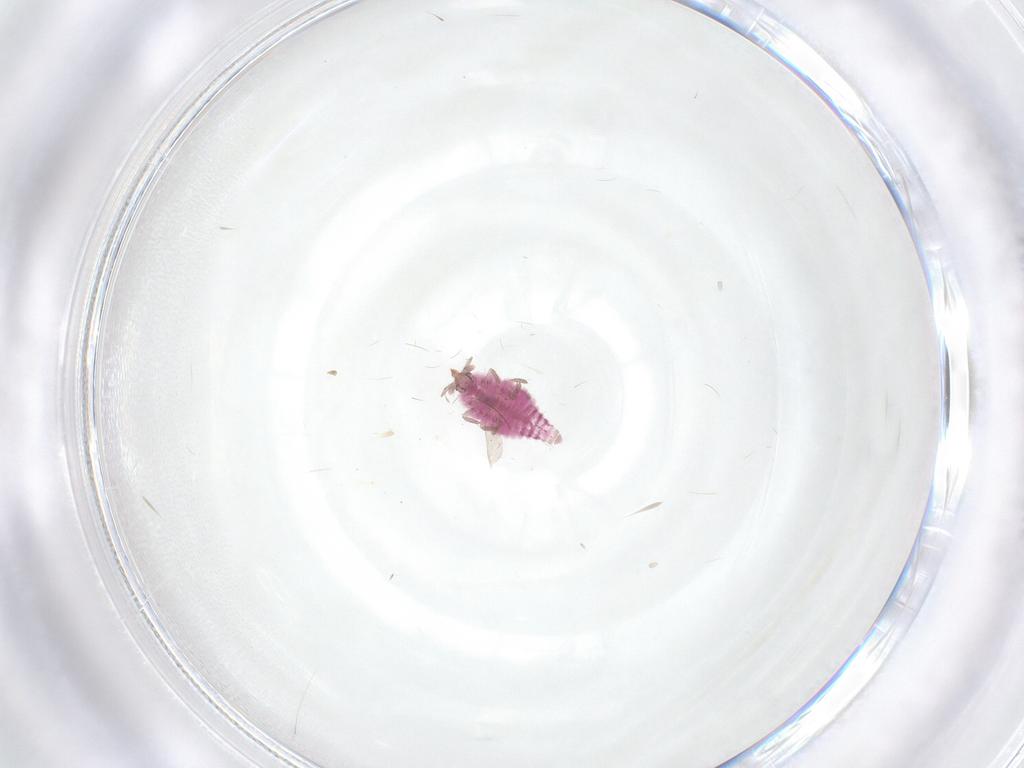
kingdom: Animalia
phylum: Arthropoda
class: Insecta
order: Neuroptera
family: Coniopterygidae
